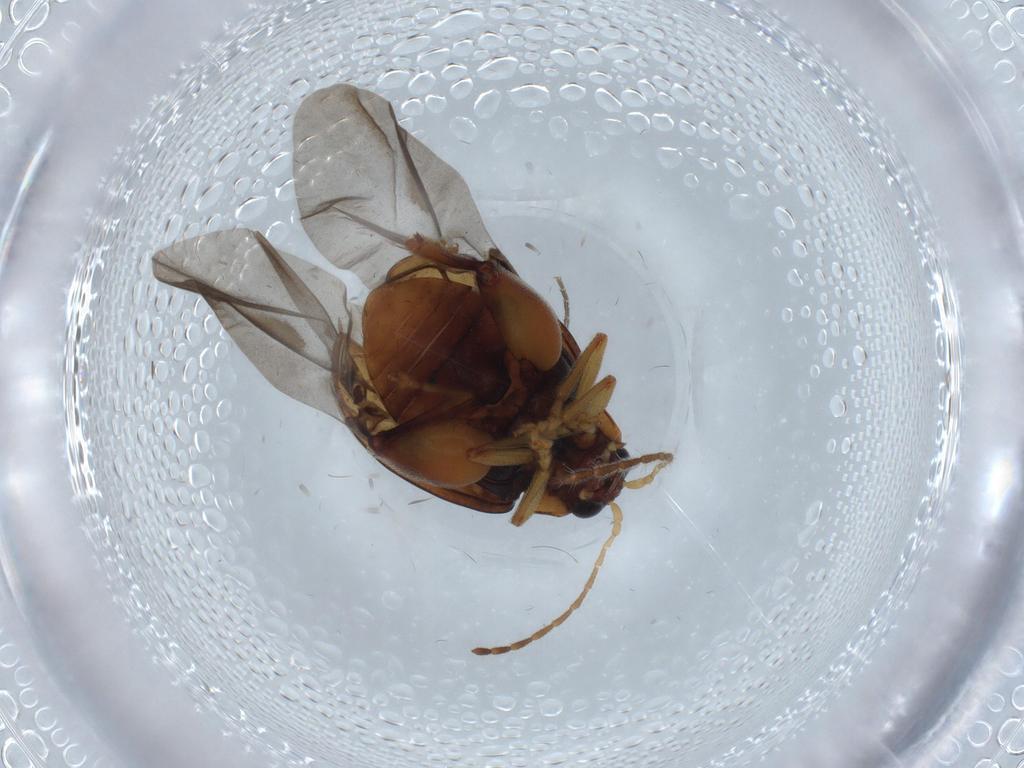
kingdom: Animalia
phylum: Arthropoda
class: Insecta
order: Coleoptera
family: Chrysomelidae
